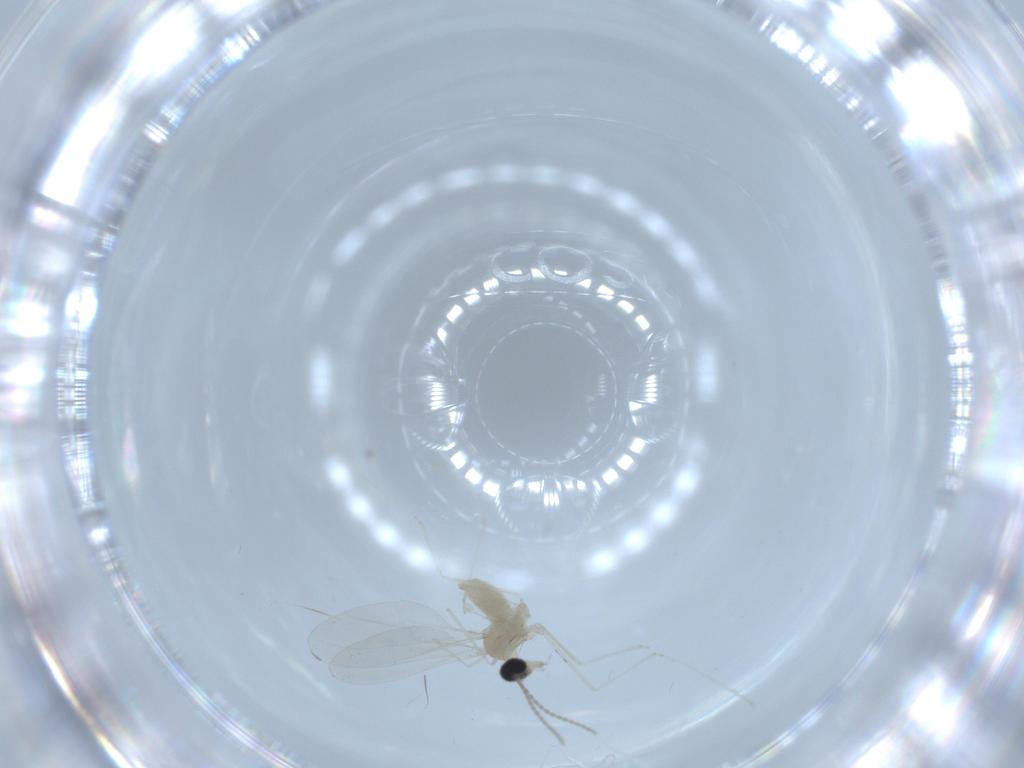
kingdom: Animalia
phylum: Arthropoda
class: Insecta
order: Diptera
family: Cecidomyiidae
